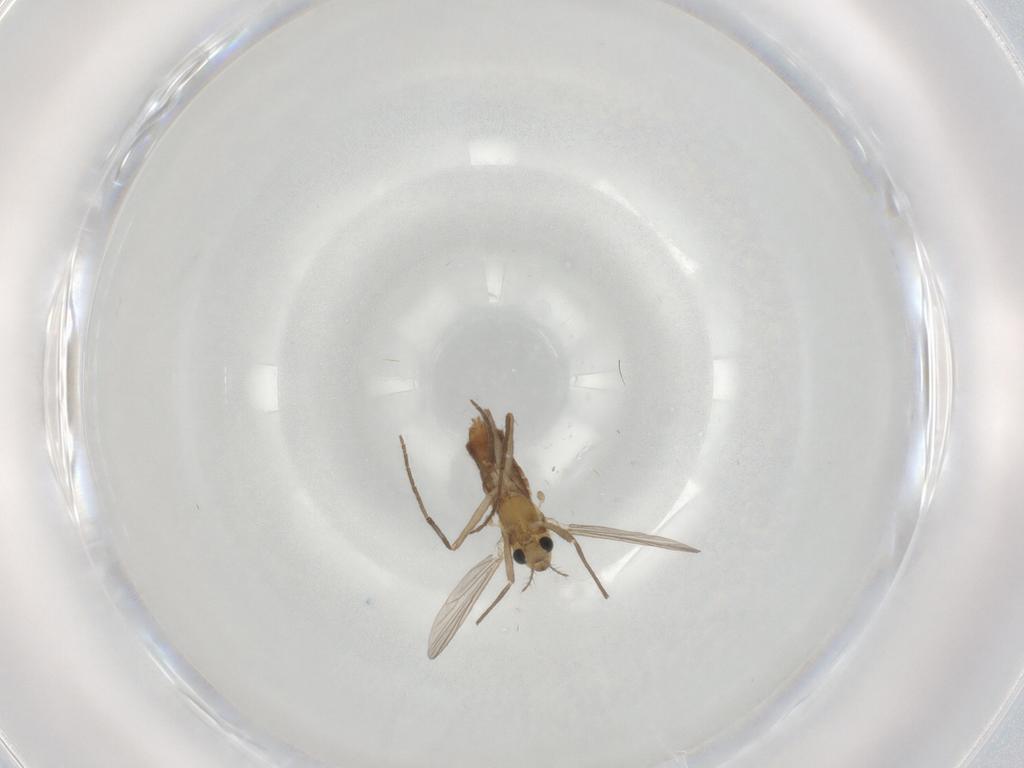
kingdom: Animalia
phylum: Arthropoda
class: Insecta
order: Diptera
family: Chironomidae
